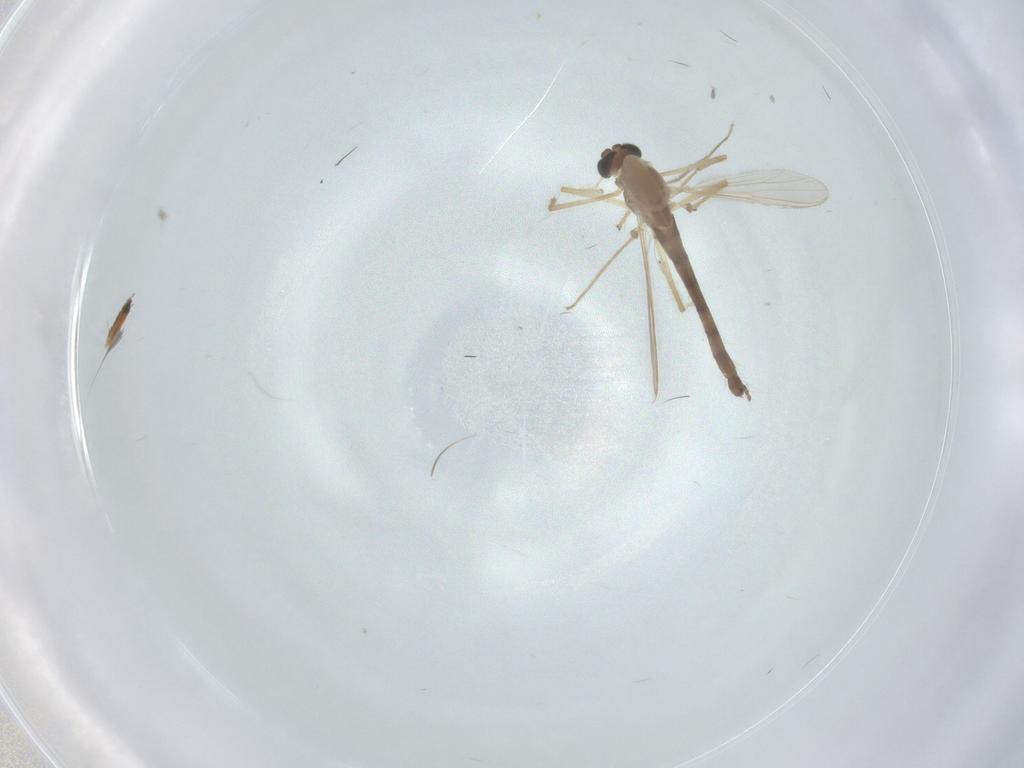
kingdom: Animalia
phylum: Arthropoda
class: Insecta
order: Diptera
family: Chironomidae
